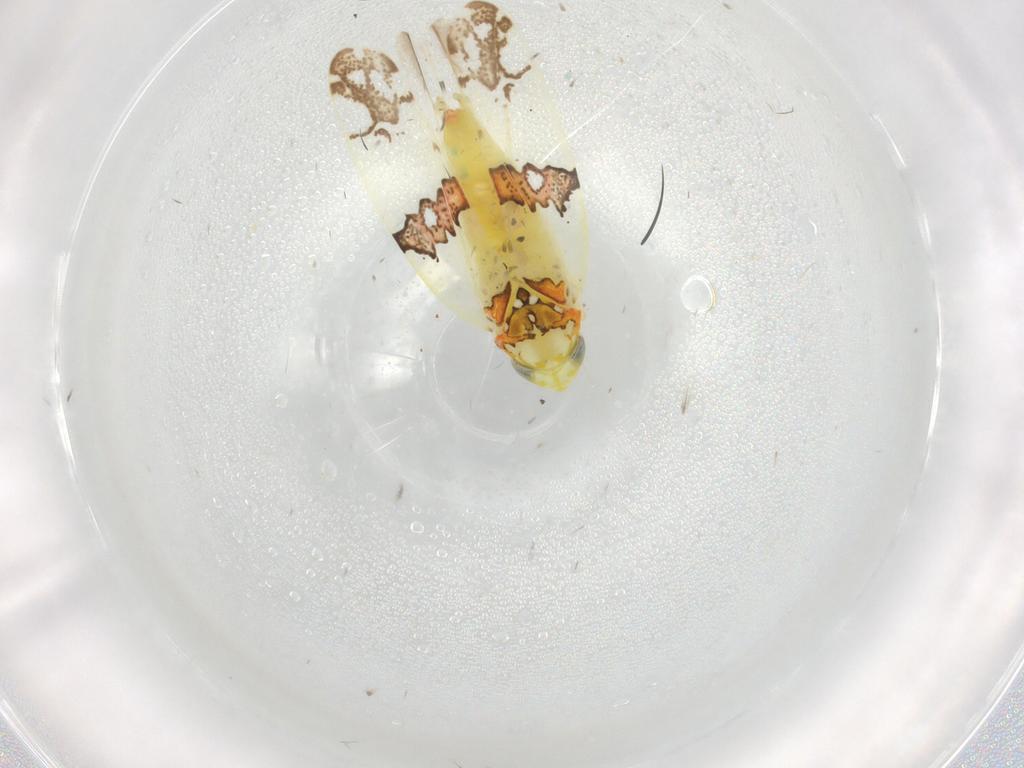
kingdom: Animalia
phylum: Arthropoda
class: Insecta
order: Hemiptera
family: Cicadellidae
